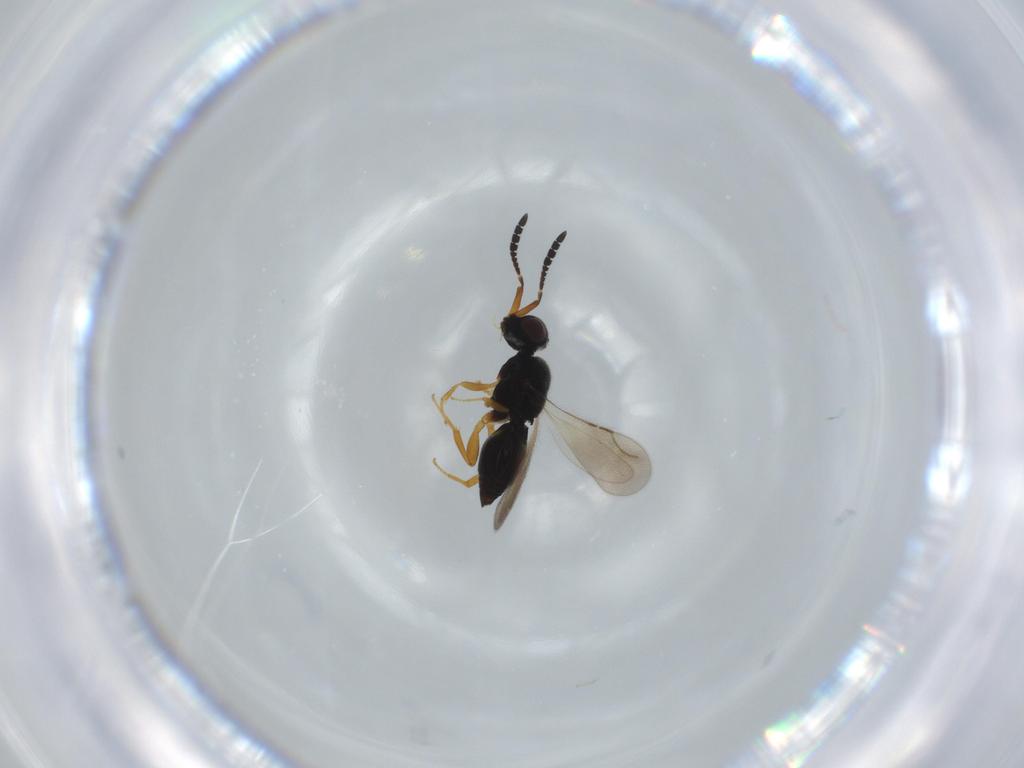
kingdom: Animalia
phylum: Arthropoda
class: Insecta
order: Hymenoptera
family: Ceraphronidae
